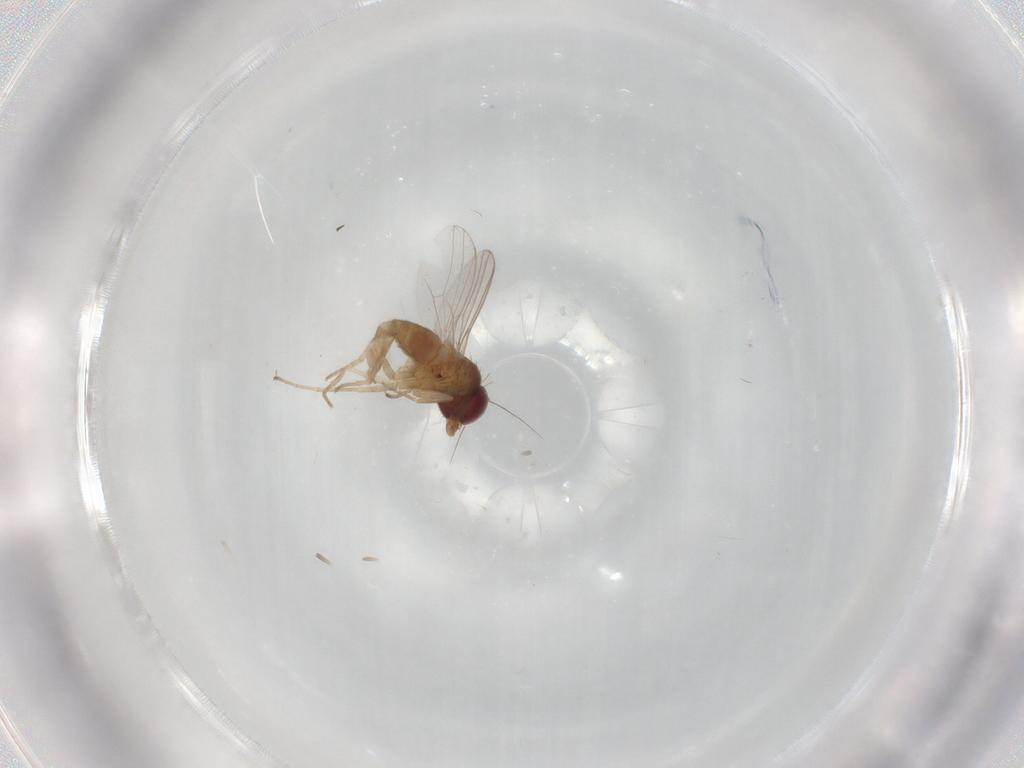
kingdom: Animalia
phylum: Arthropoda
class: Insecta
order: Diptera
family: Dolichopodidae
